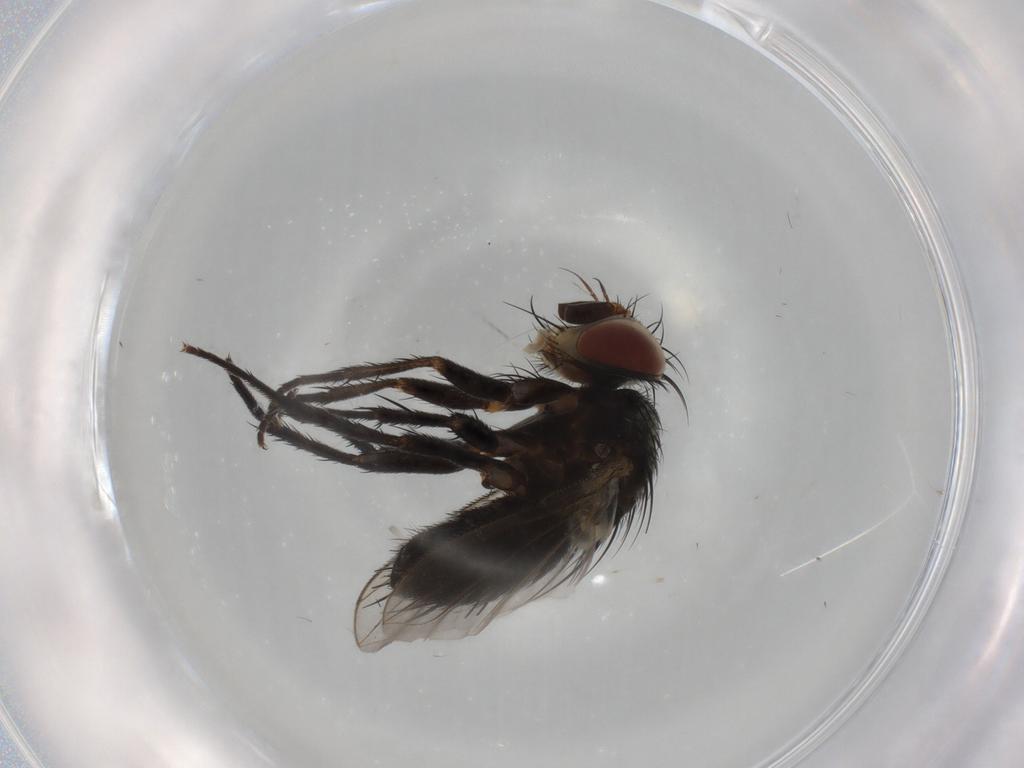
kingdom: Animalia
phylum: Arthropoda
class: Insecta
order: Diptera
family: Tachinidae
